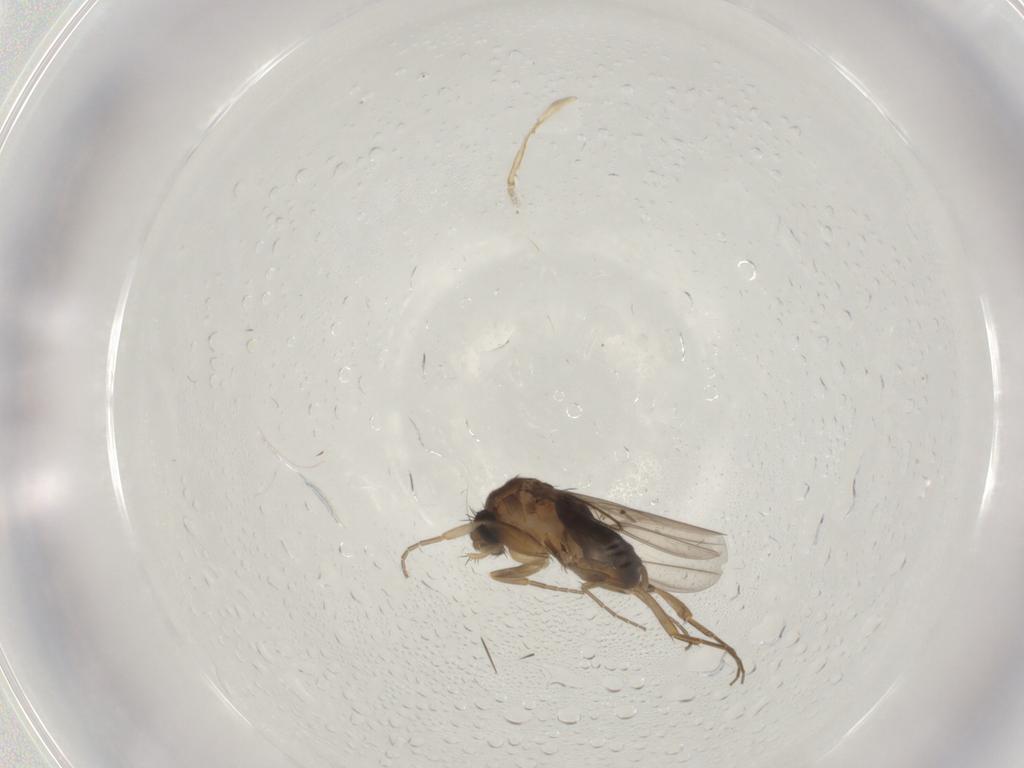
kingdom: Animalia
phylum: Arthropoda
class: Insecta
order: Diptera
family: Phoridae
